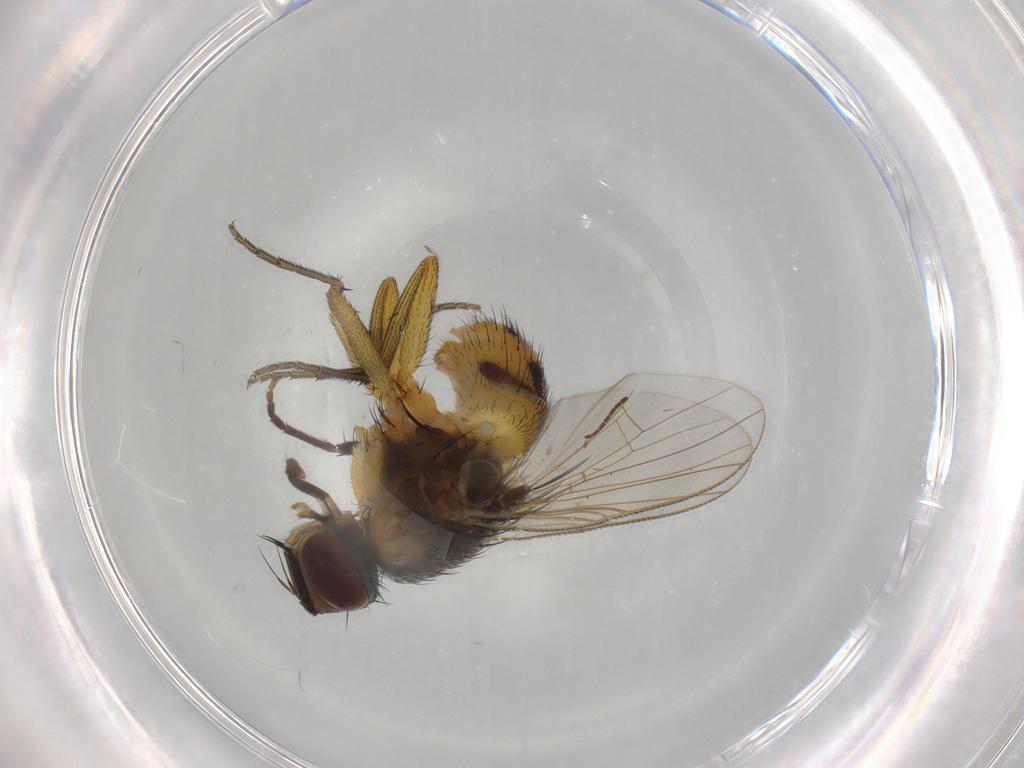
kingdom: Animalia
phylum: Arthropoda
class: Insecta
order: Diptera
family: Muscidae
